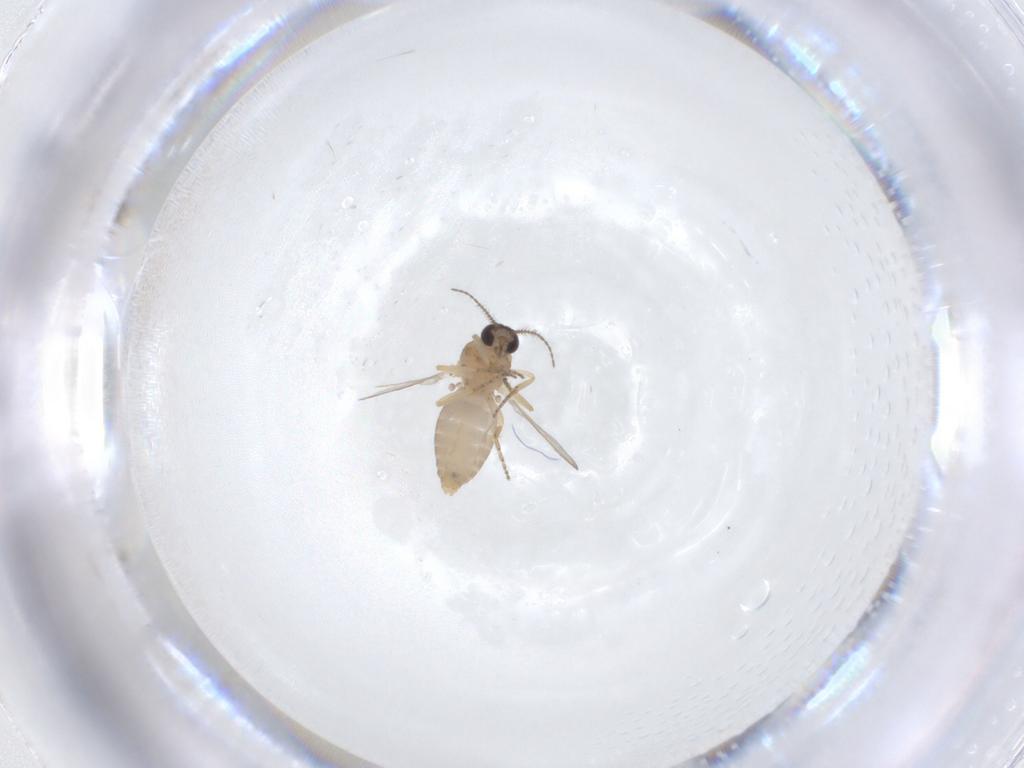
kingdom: Animalia
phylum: Arthropoda
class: Insecta
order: Diptera
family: Ceratopogonidae
